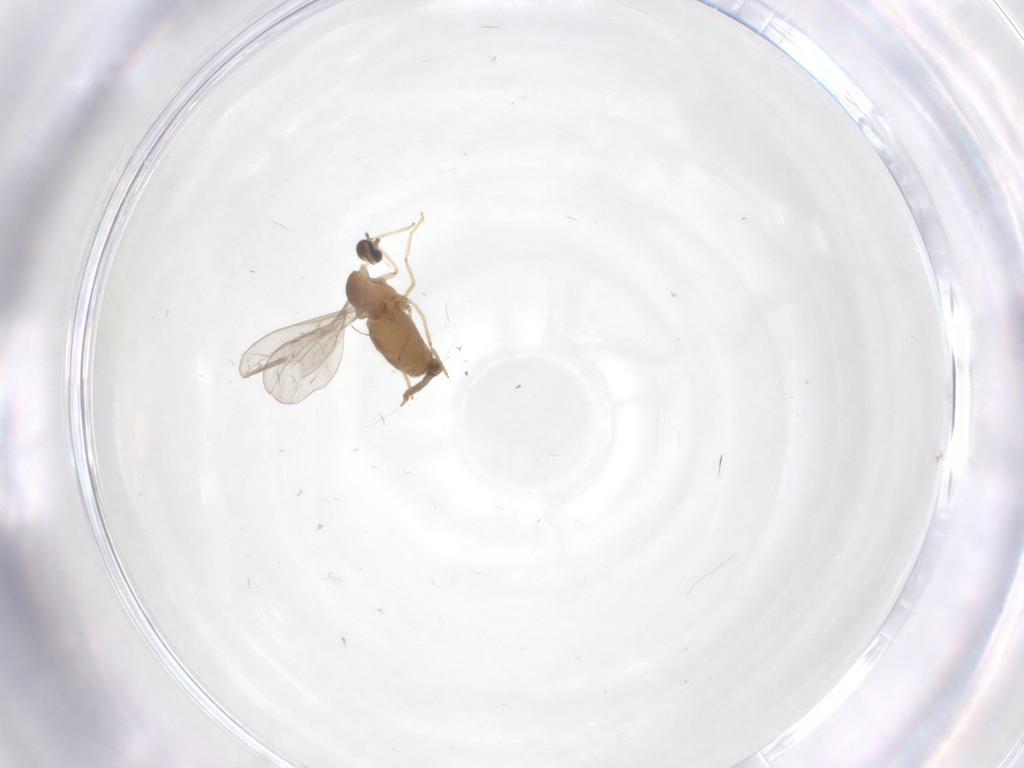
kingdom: Animalia
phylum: Arthropoda
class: Insecta
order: Diptera
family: Cecidomyiidae
